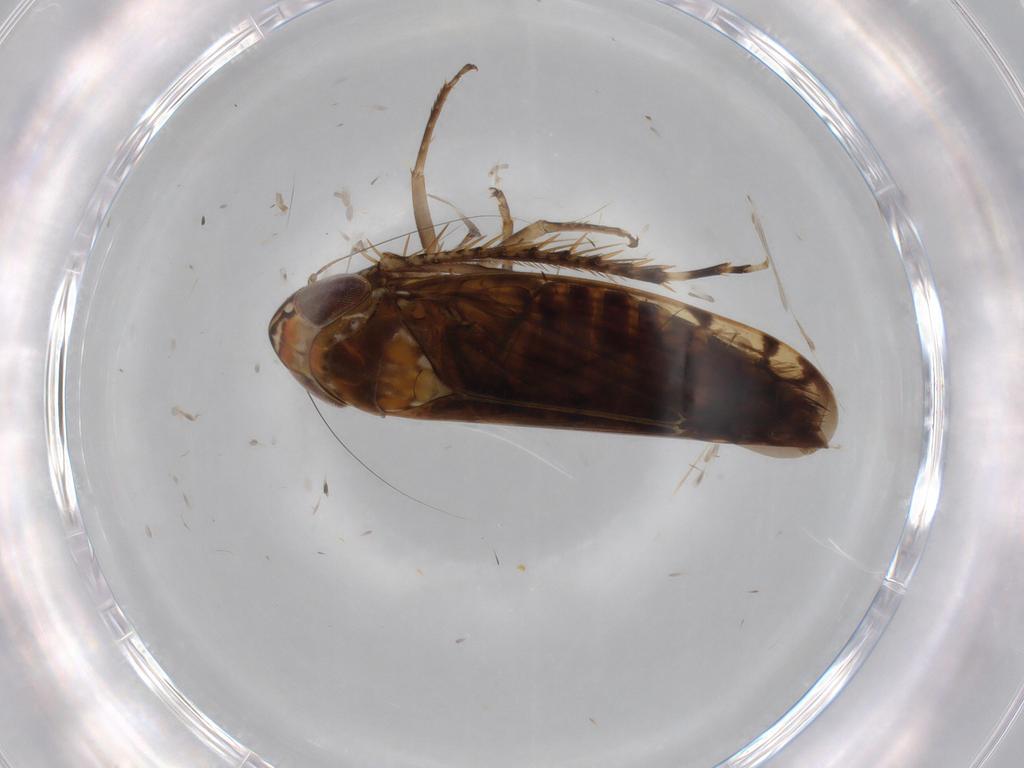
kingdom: Animalia
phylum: Arthropoda
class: Insecta
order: Hemiptera
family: Cicadellidae
